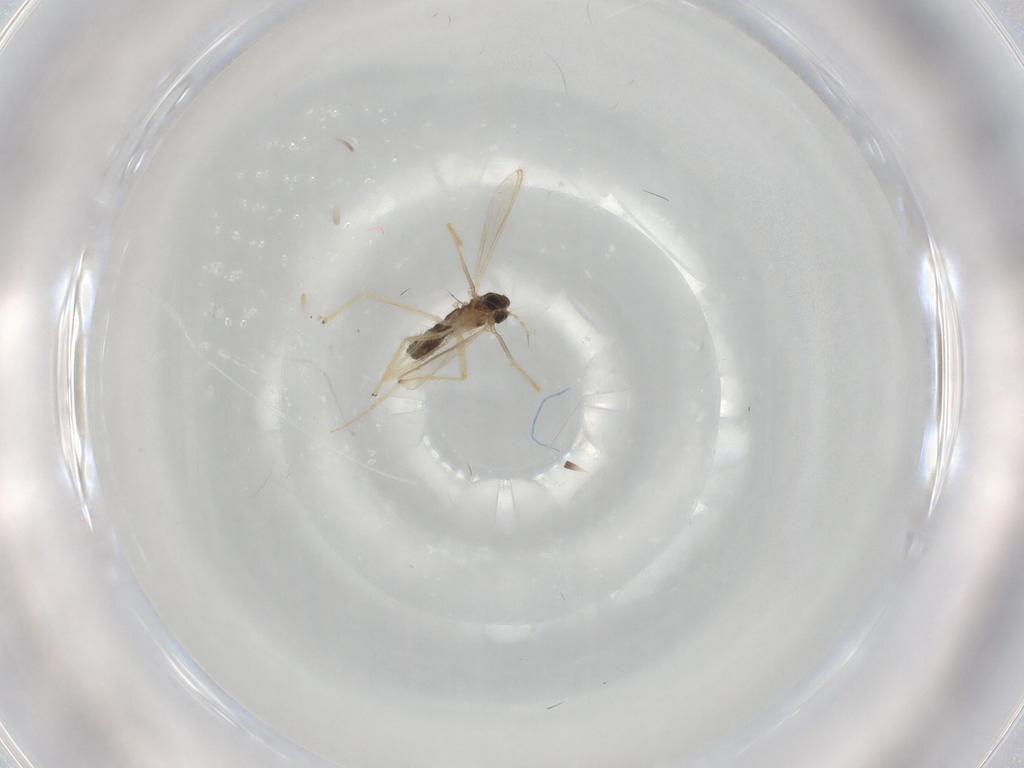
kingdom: Animalia
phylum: Arthropoda
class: Insecta
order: Diptera
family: Chironomidae
